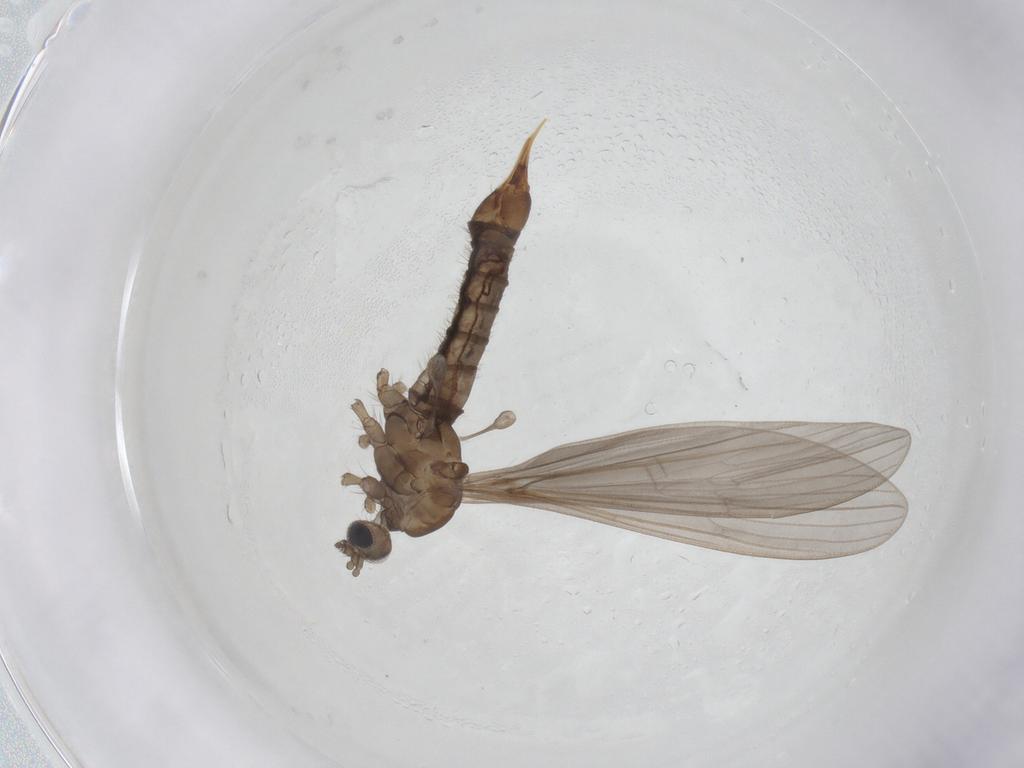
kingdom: Animalia
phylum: Arthropoda
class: Insecta
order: Diptera
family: Limoniidae
